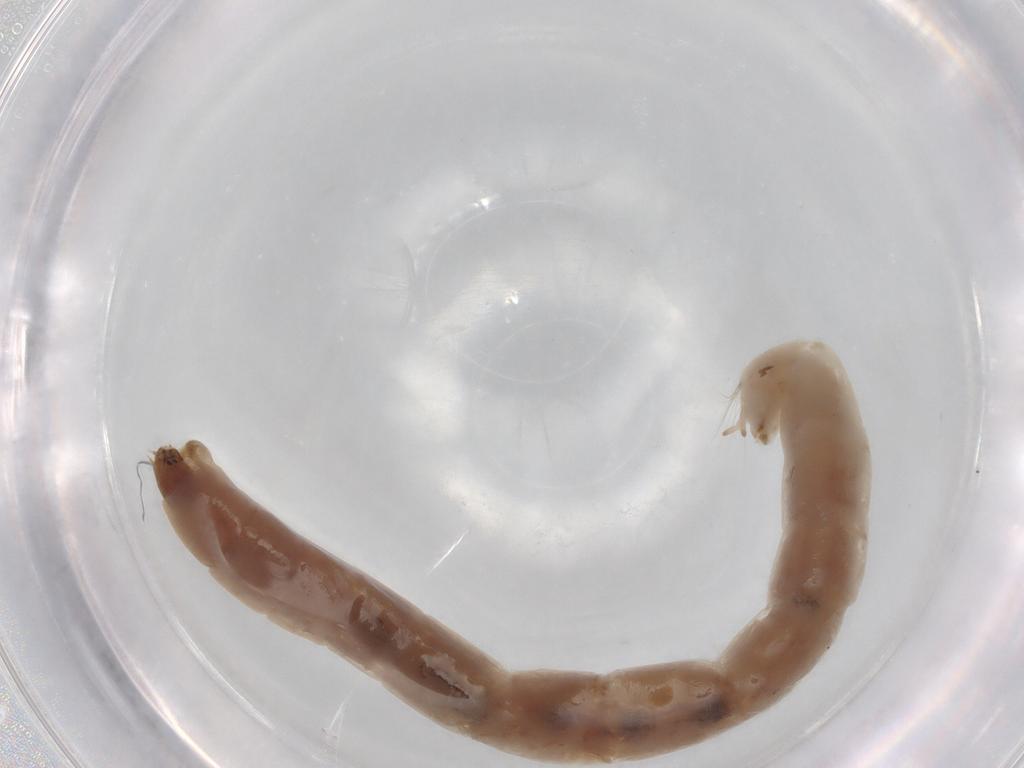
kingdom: Animalia
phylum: Arthropoda
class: Insecta
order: Diptera
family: Chironomidae
